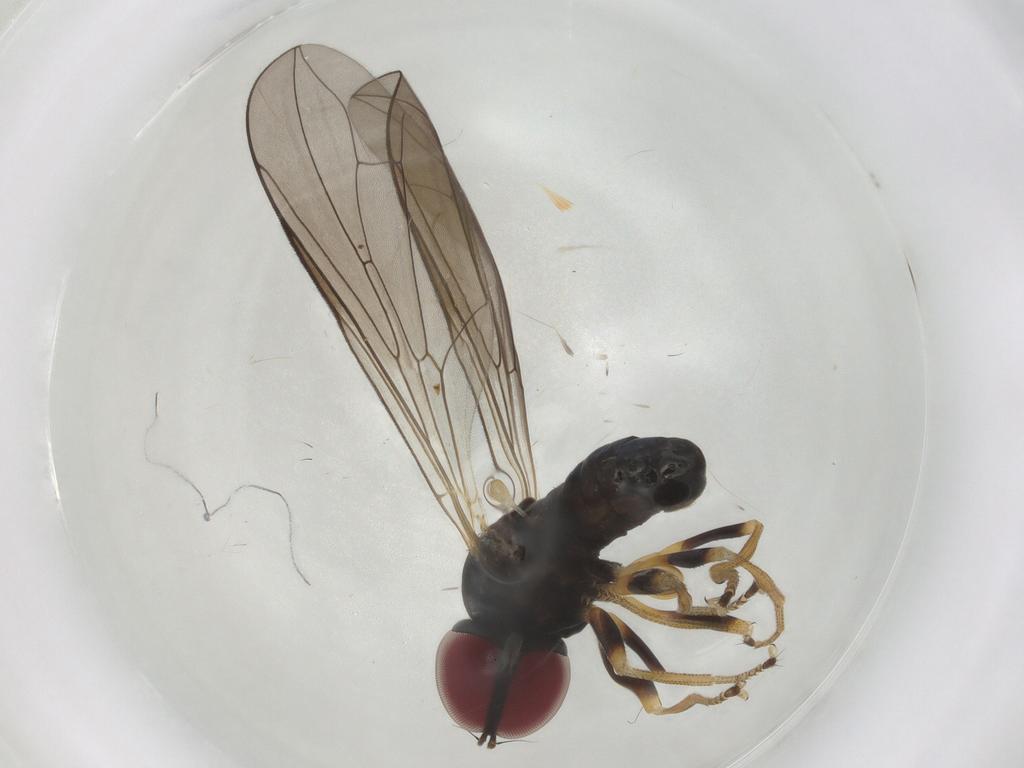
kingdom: Animalia
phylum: Arthropoda
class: Insecta
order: Diptera
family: Pipunculidae
